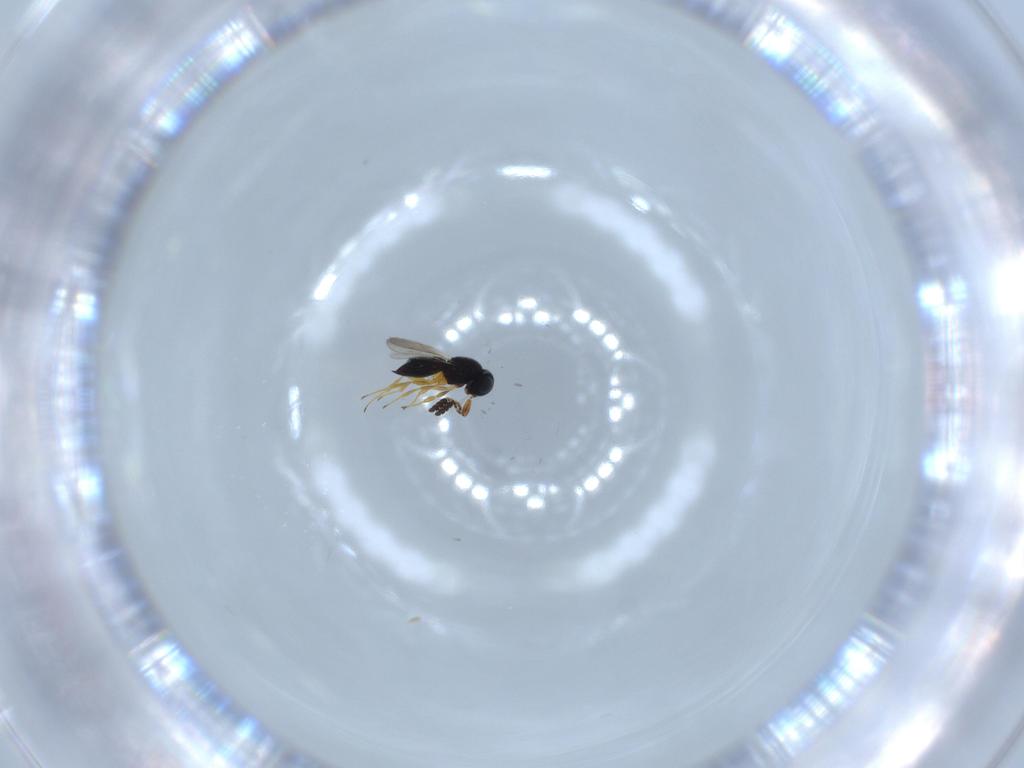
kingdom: Animalia
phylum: Arthropoda
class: Insecta
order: Hymenoptera
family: Scelionidae
